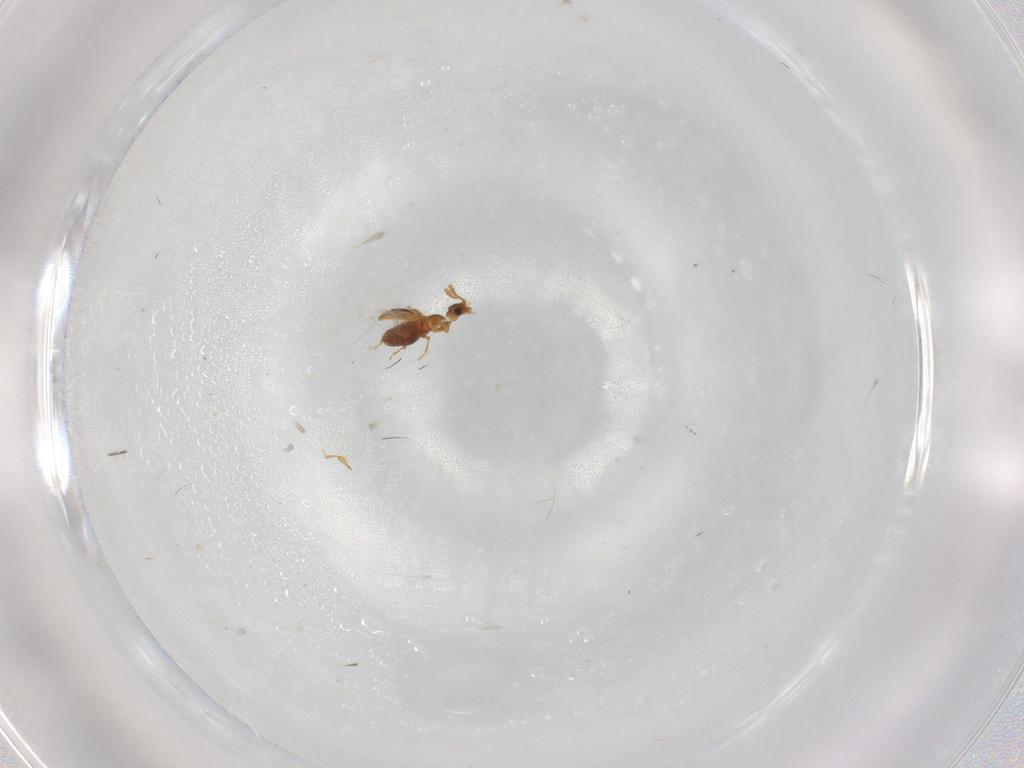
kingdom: Animalia
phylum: Arthropoda
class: Insecta
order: Coleoptera
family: Staphylinidae
